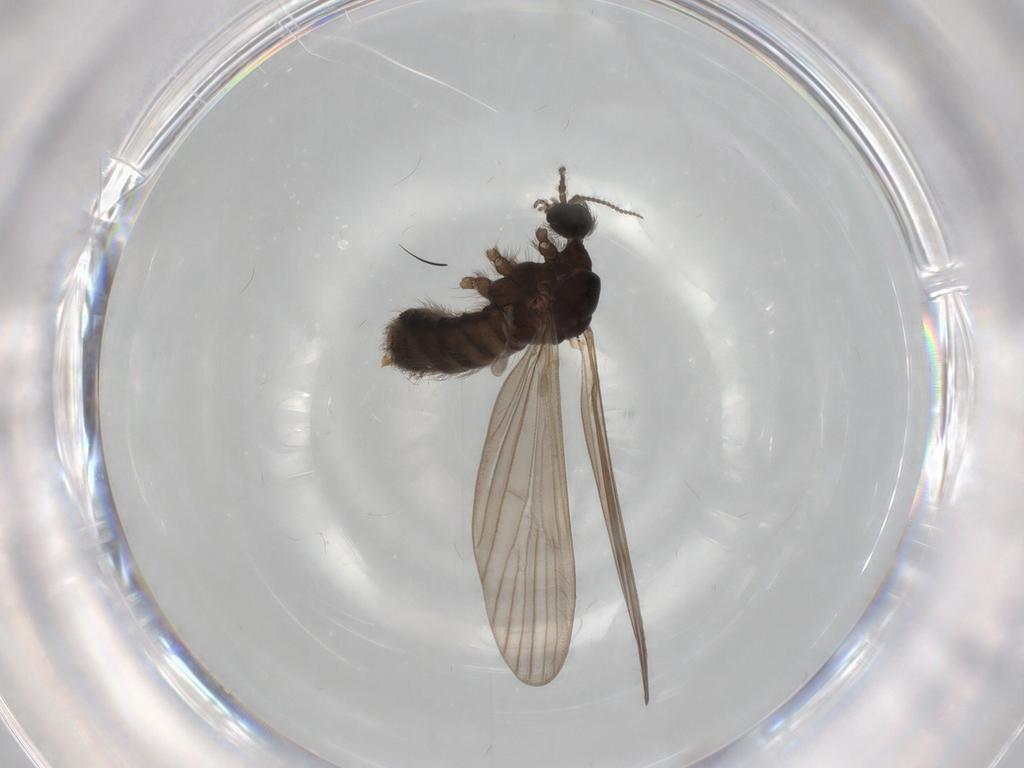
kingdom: Animalia
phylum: Arthropoda
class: Insecta
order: Diptera
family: Limoniidae
